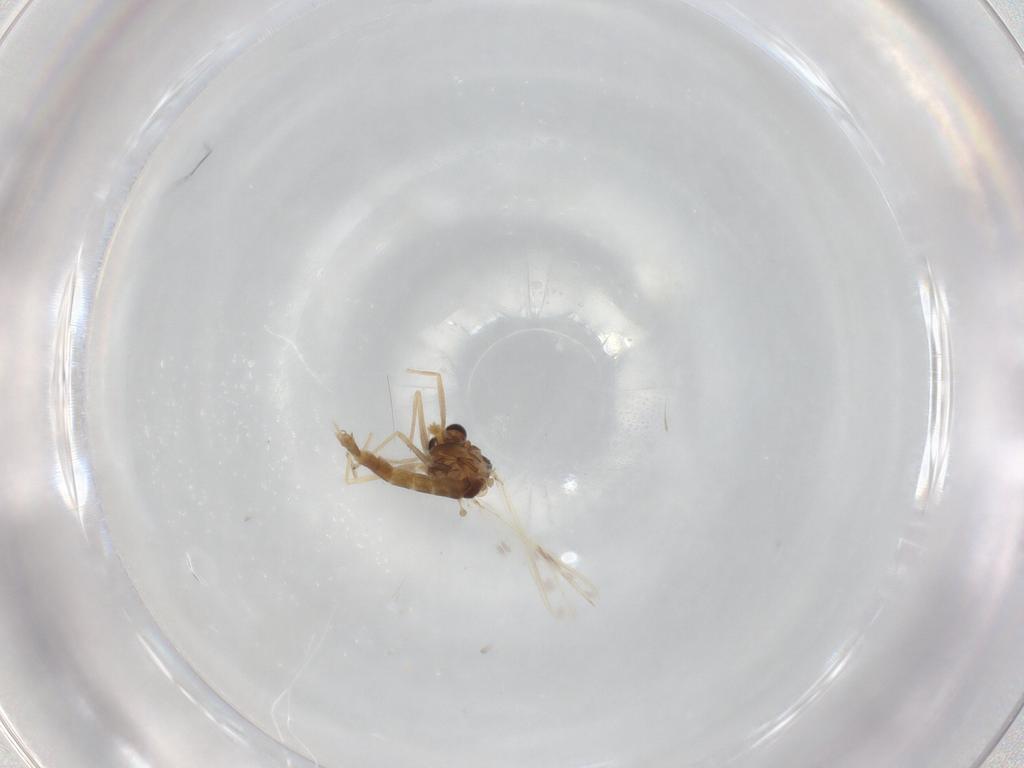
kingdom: Animalia
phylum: Arthropoda
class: Insecta
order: Diptera
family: Chironomidae
